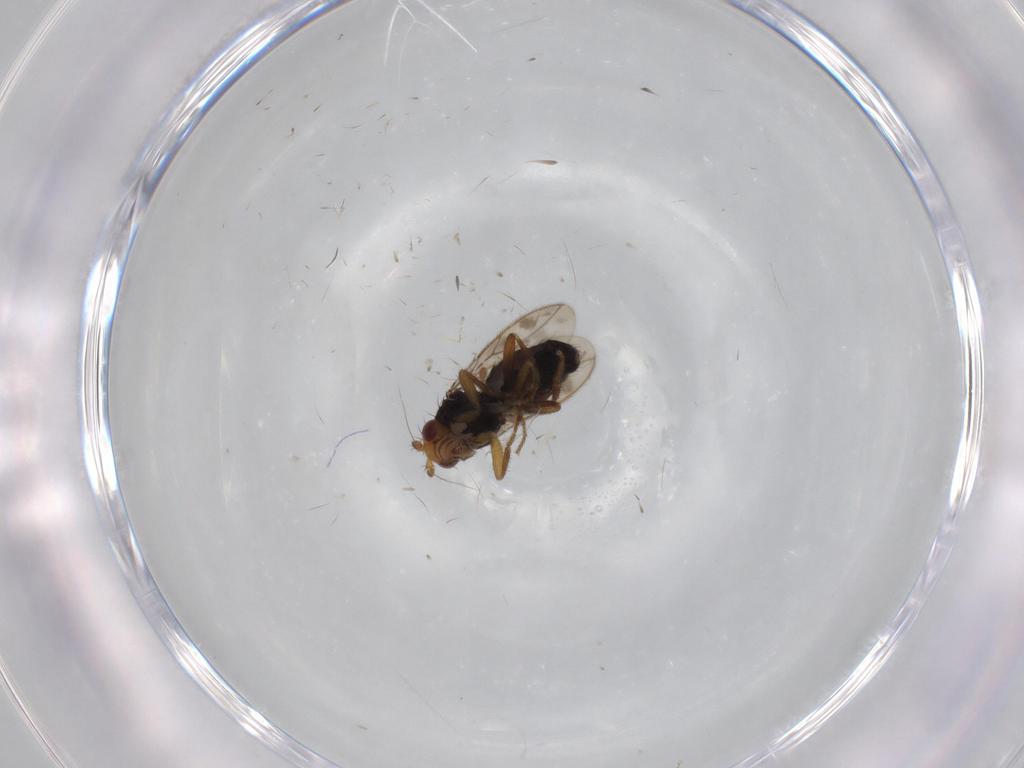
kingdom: Animalia
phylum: Arthropoda
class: Insecta
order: Diptera
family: Sphaeroceridae
